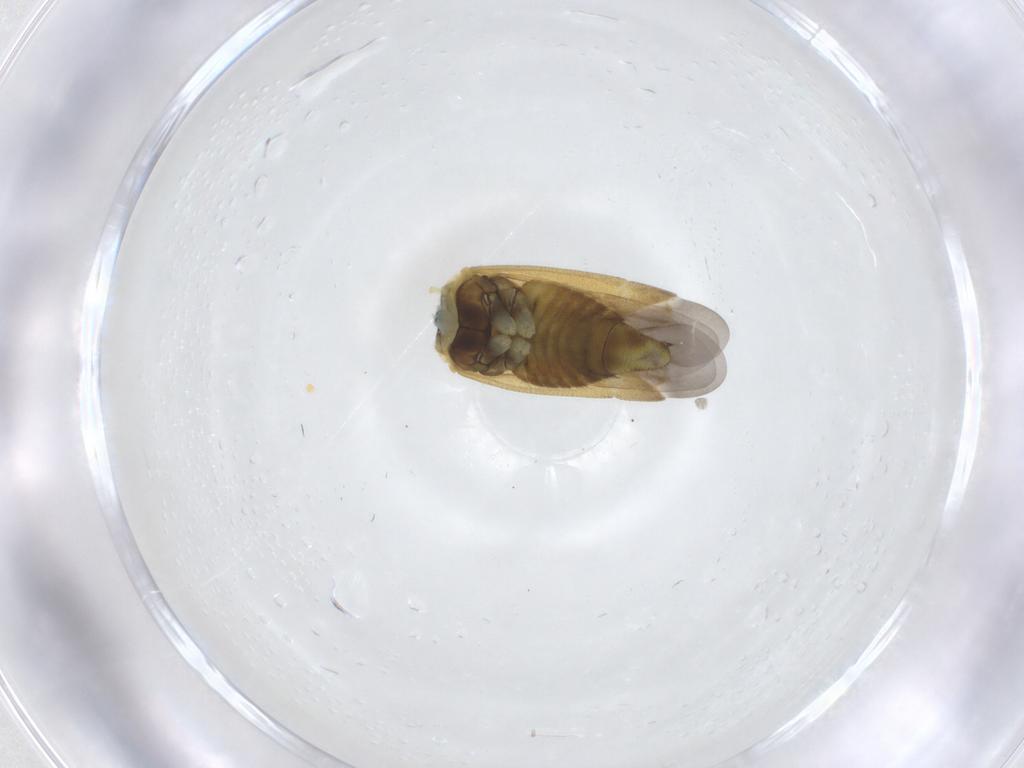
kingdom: Animalia
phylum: Arthropoda
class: Insecta
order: Hemiptera
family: Miridae
